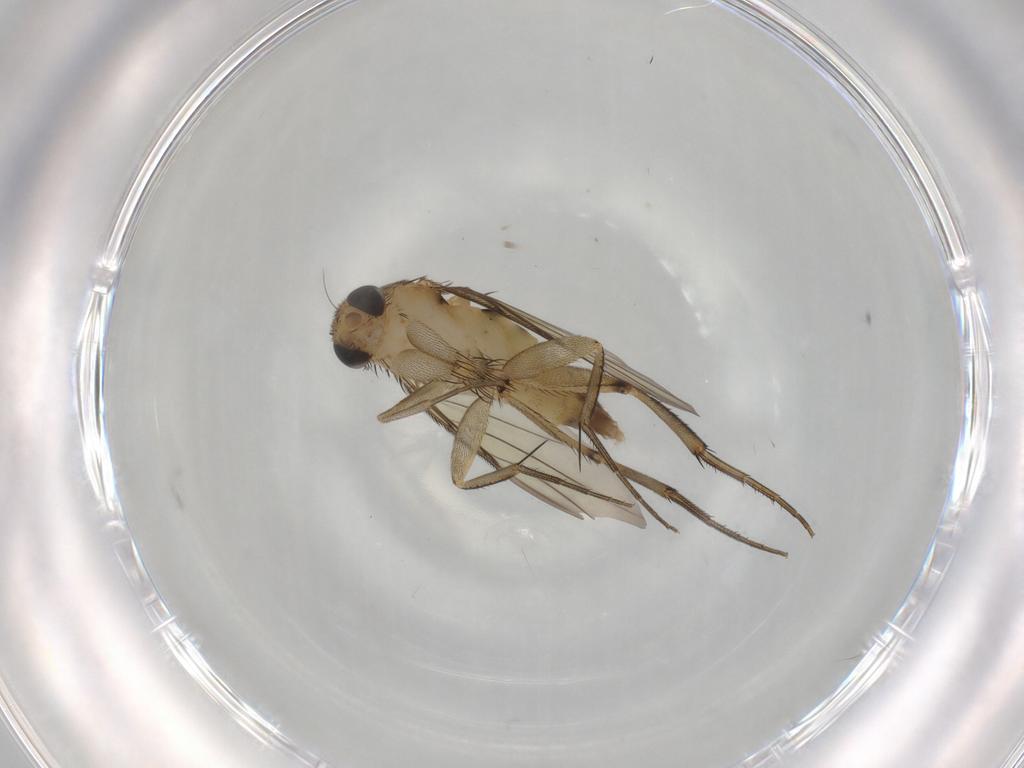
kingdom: Animalia
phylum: Arthropoda
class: Insecta
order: Diptera
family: Phoridae
